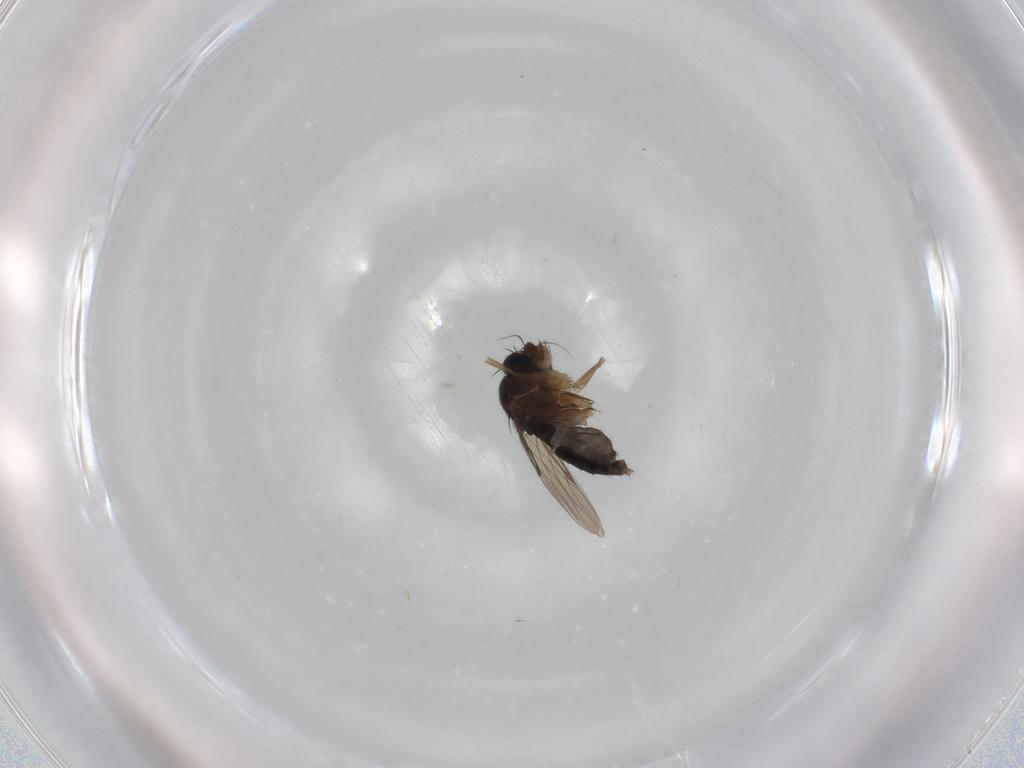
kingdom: Animalia
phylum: Arthropoda
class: Insecta
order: Diptera
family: Phoridae
